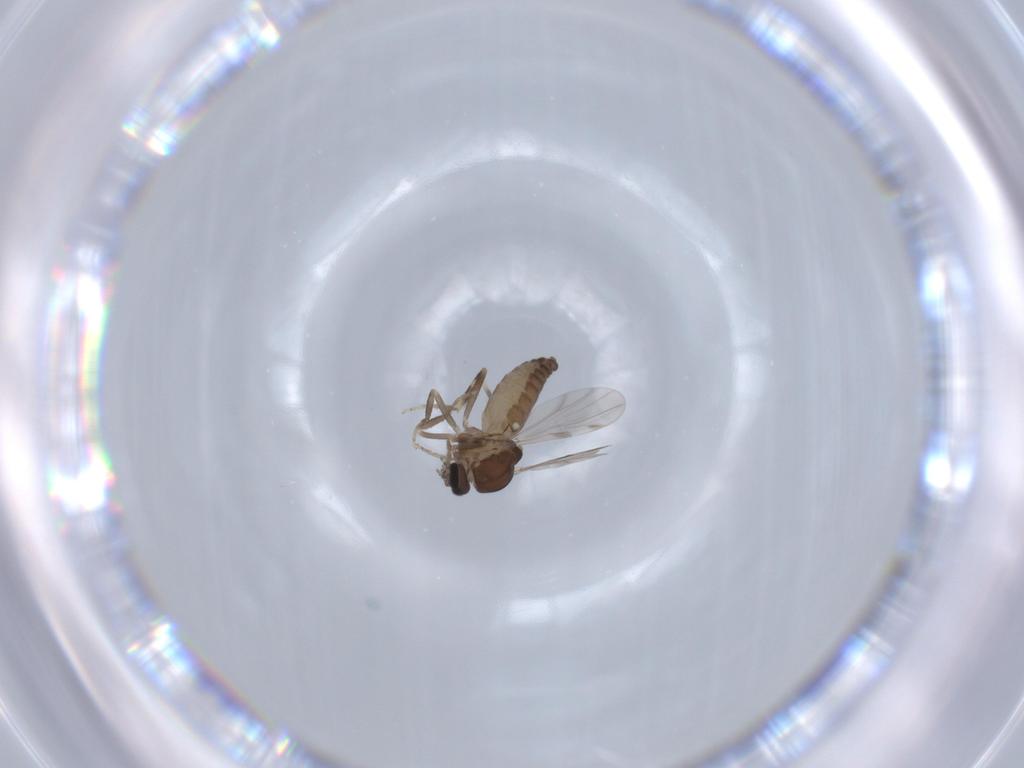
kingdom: Animalia
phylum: Arthropoda
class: Insecta
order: Diptera
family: Ceratopogonidae
